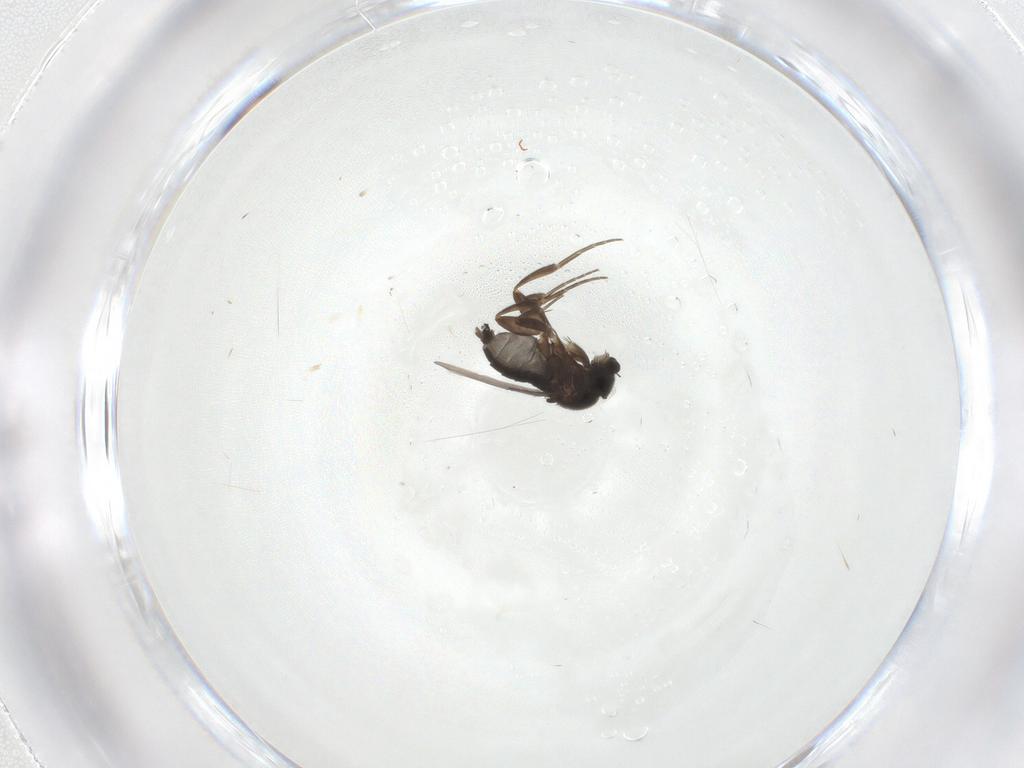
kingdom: Animalia
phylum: Arthropoda
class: Insecta
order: Diptera
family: Phoridae
